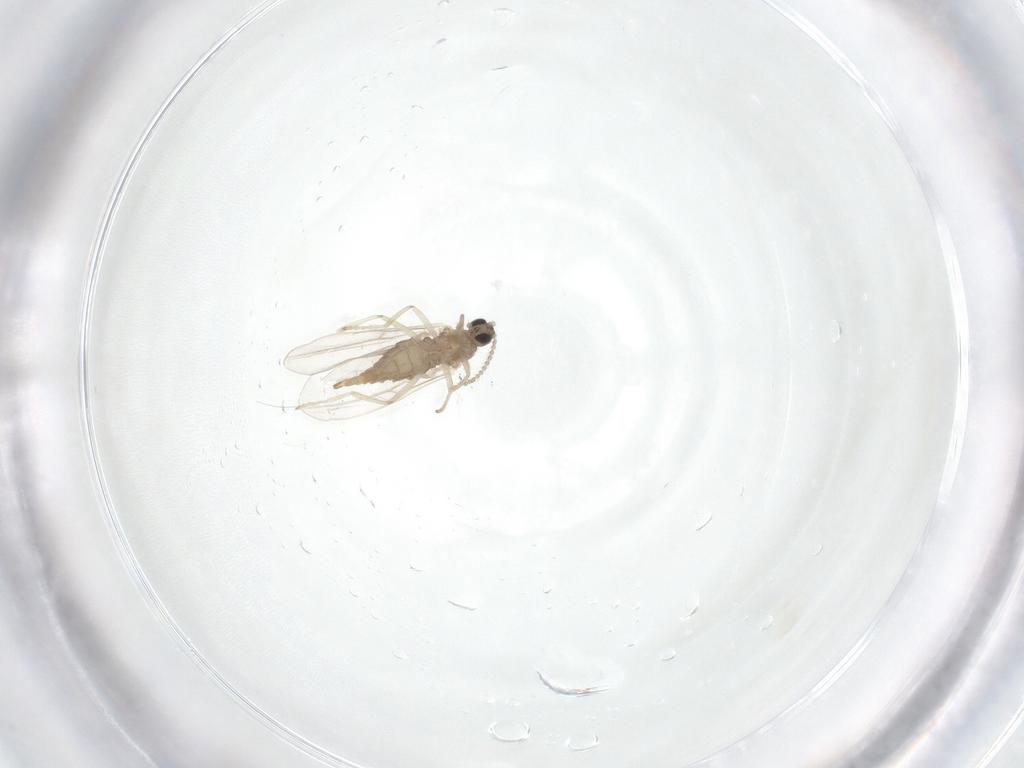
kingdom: Animalia
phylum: Arthropoda
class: Insecta
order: Diptera
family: Cecidomyiidae
